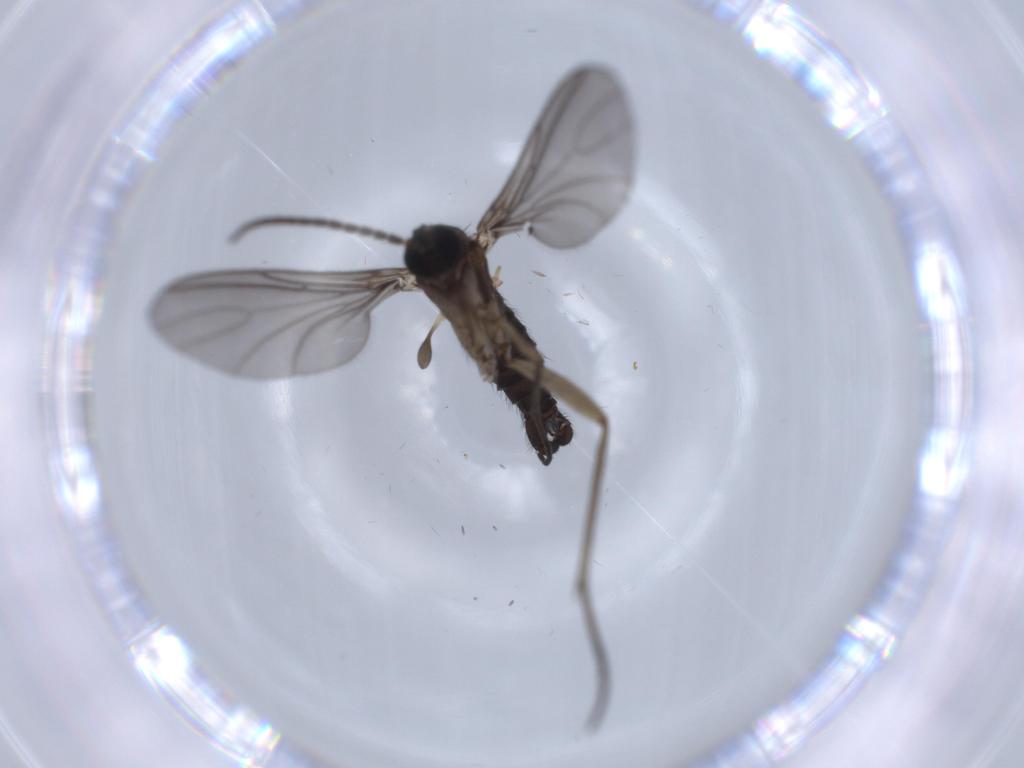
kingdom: Animalia
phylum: Arthropoda
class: Insecta
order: Diptera
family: Sciaridae
